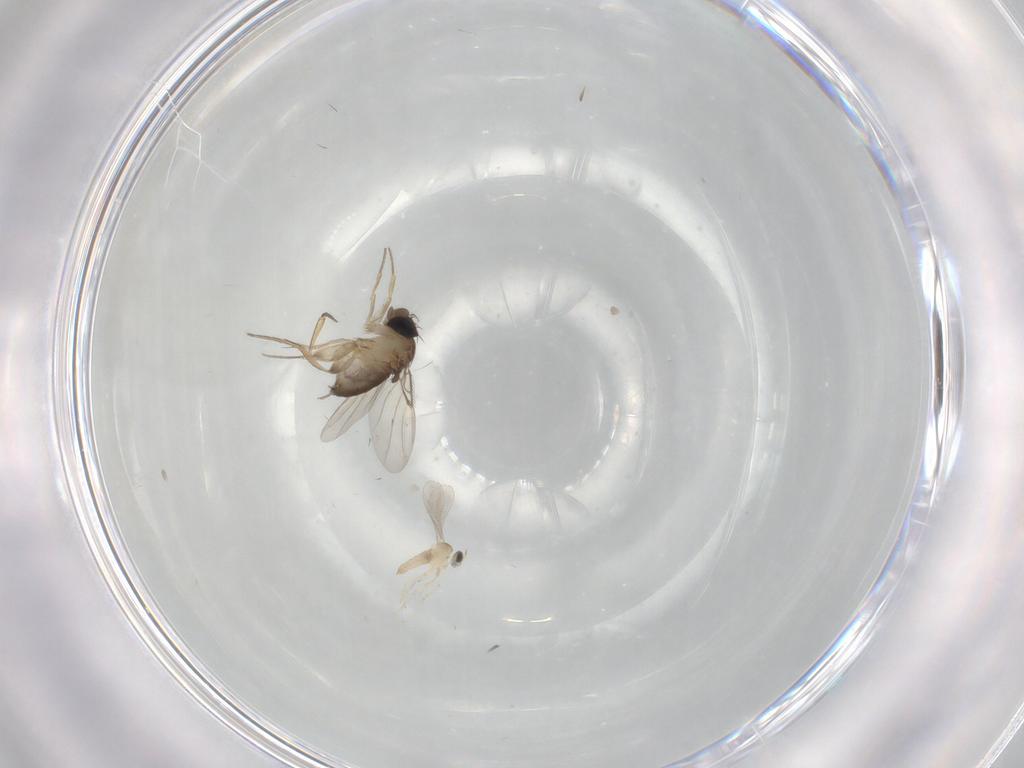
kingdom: Animalia
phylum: Arthropoda
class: Insecta
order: Diptera
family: Phoridae
